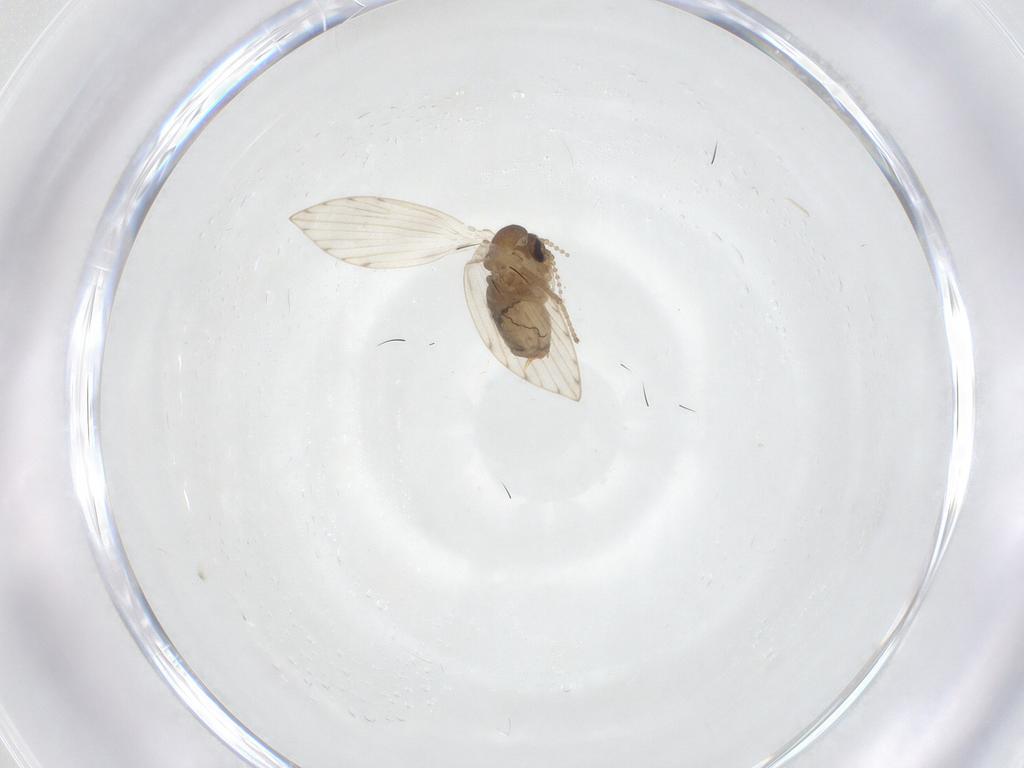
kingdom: Animalia
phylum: Arthropoda
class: Insecta
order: Diptera
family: Psychodidae
